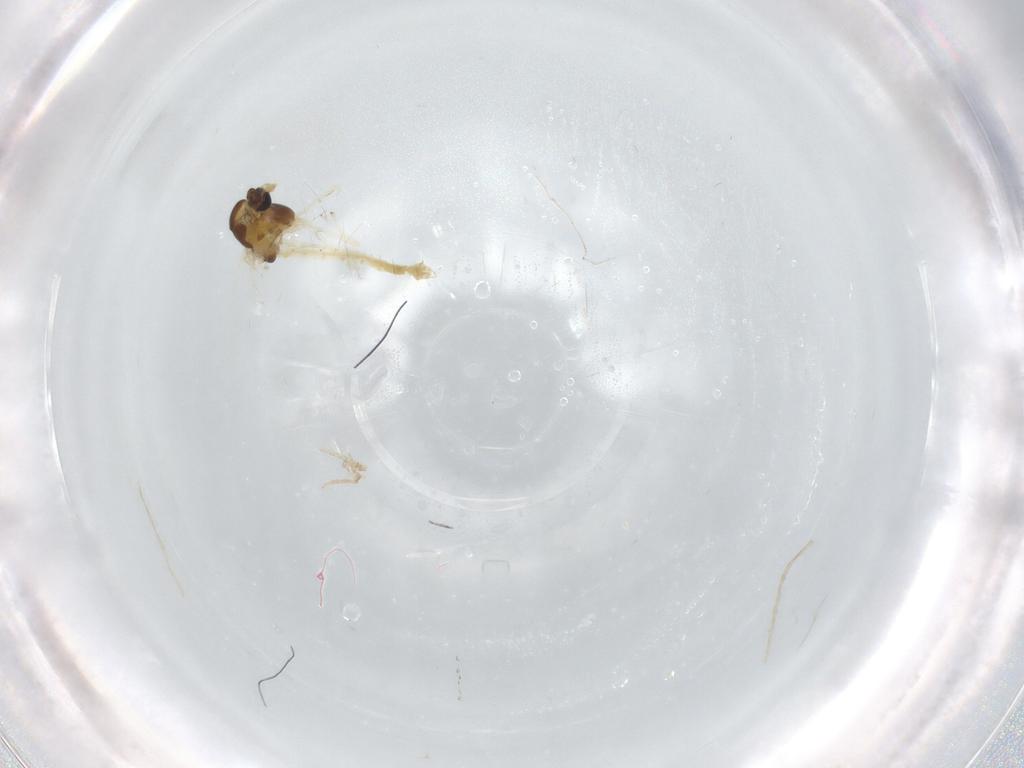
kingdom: Animalia
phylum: Arthropoda
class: Insecta
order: Diptera
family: Chironomidae
